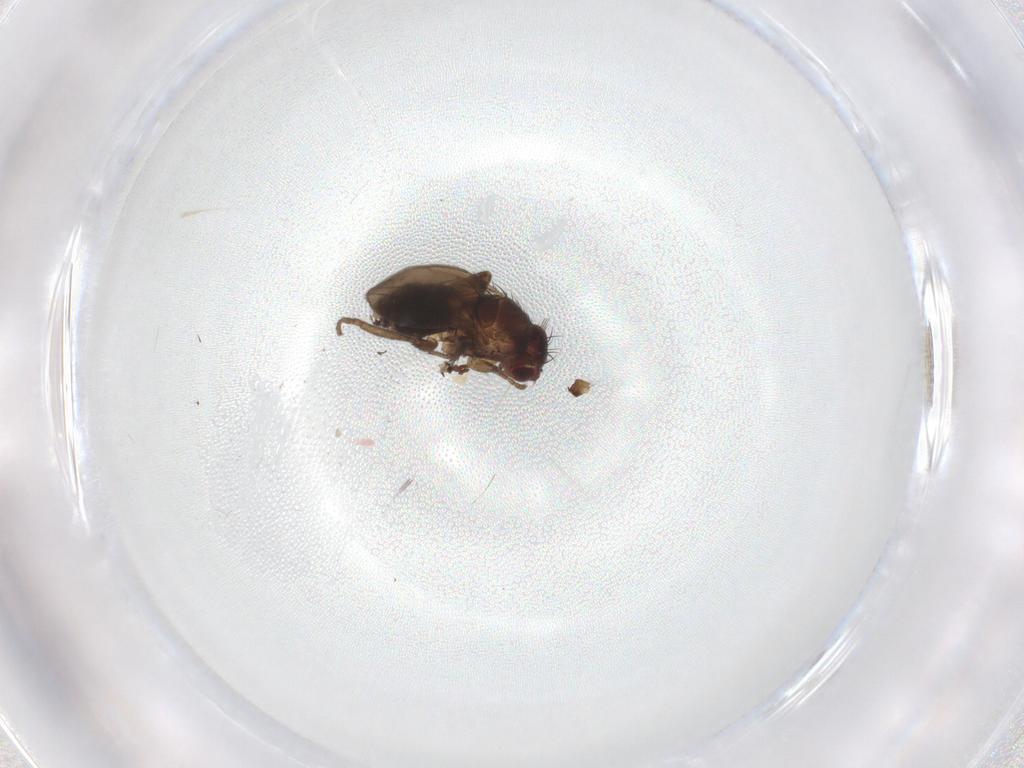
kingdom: Animalia
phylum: Arthropoda
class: Insecta
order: Diptera
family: Sphaeroceridae
